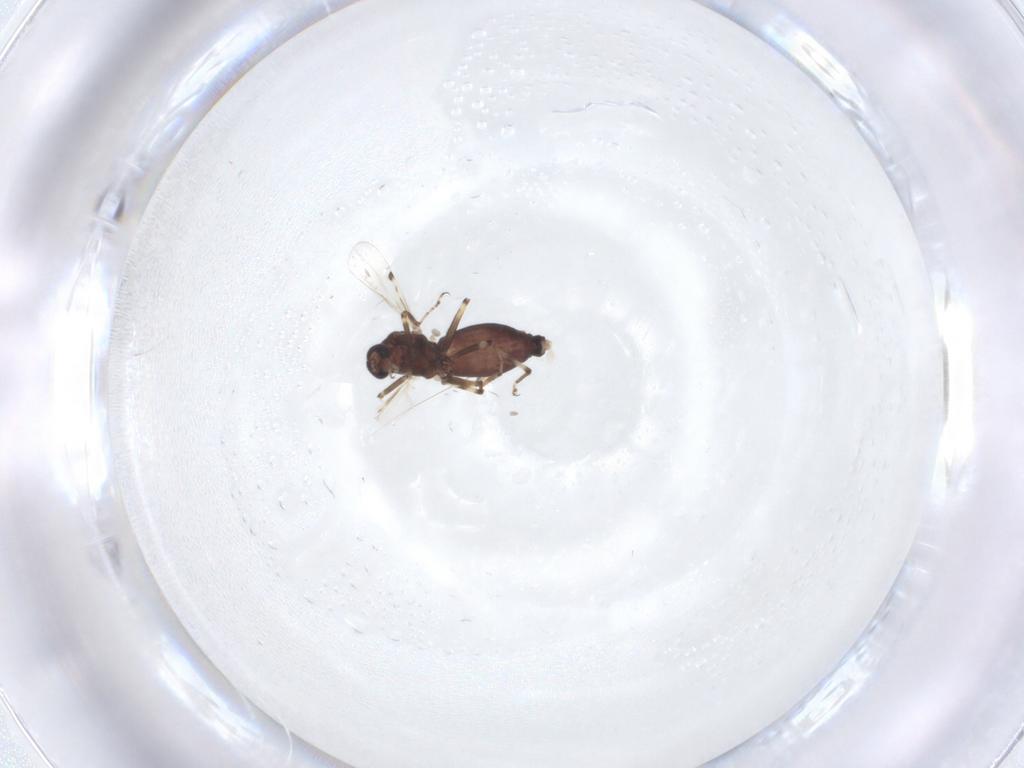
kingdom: Animalia
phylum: Arthropoda
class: Insecta
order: Diptera
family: Ceratopogonidae
